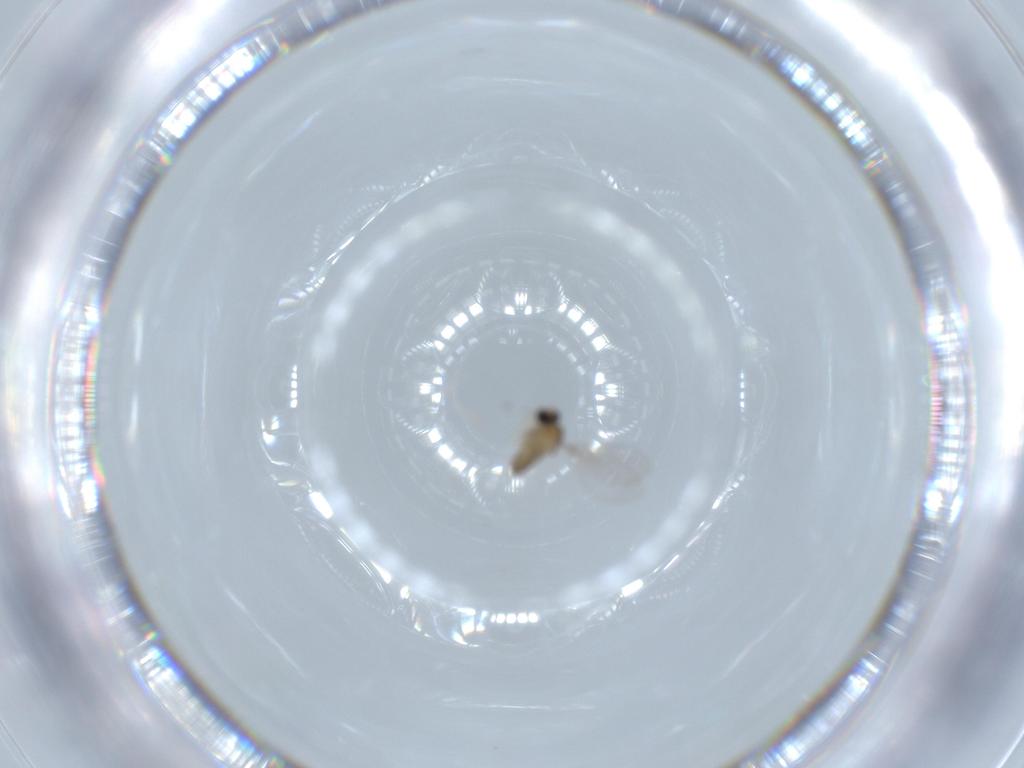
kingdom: Animalia
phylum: Arthropoda
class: Insecta
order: Diptera
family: Cecidomyiidae
